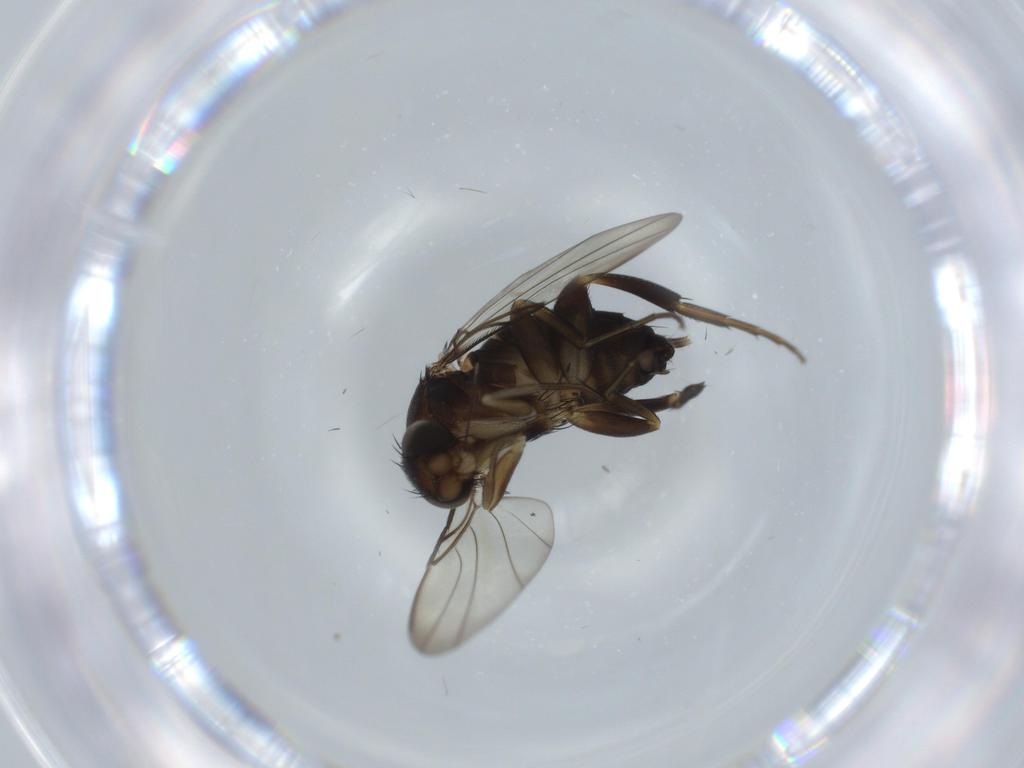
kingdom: Animalia
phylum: Arthropoda
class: Insecta
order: Diptera
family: Phoridae
